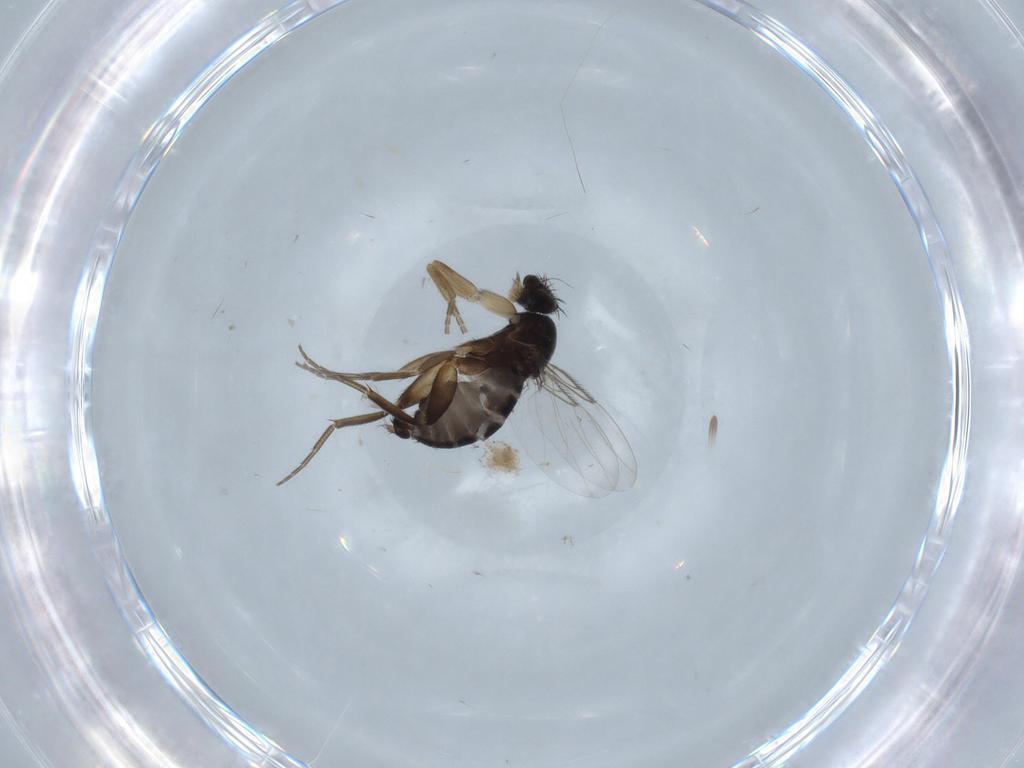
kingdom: Animalia
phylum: Arthropoda
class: Insecta
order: Diptera
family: Phoridae
